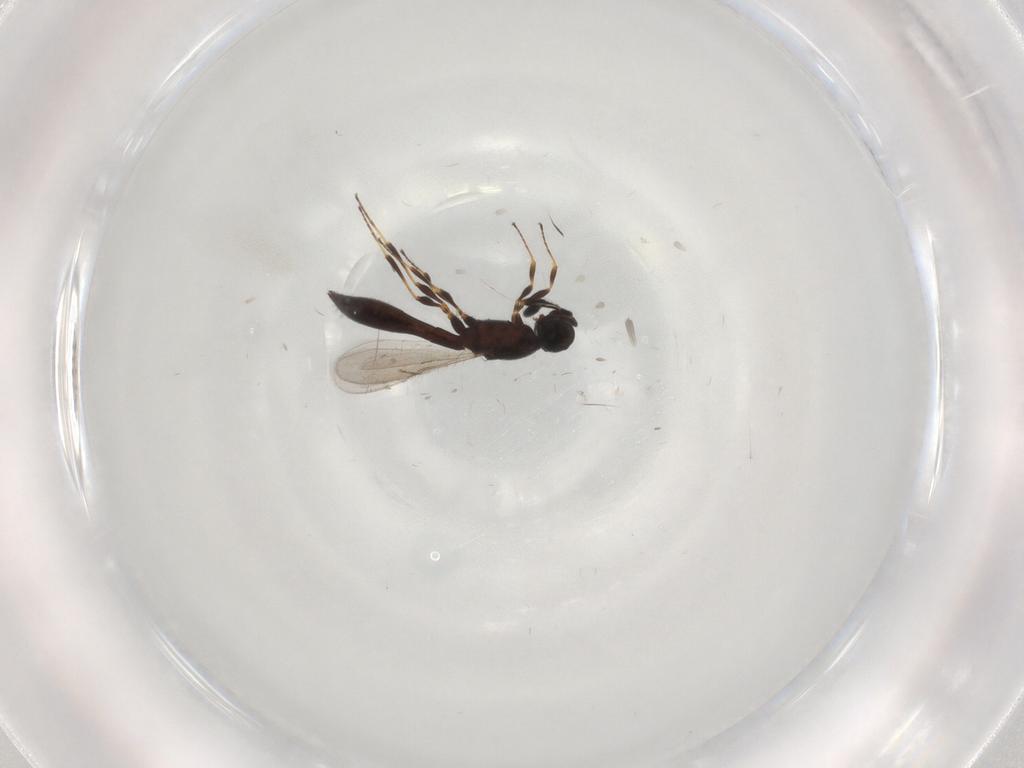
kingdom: Animalia
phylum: Arthropoda
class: Insecta
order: Hymenoptera
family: Scelionidae
